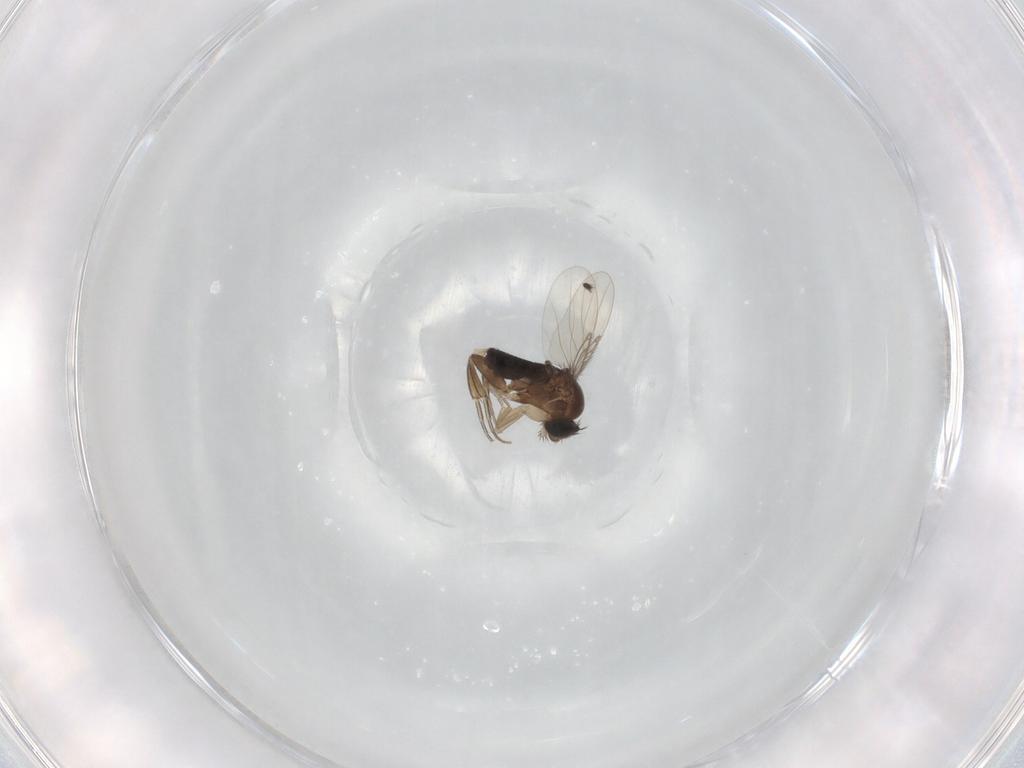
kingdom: Animalia
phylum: Arthropoda
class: Insecta
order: Diptera
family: Phoridae
